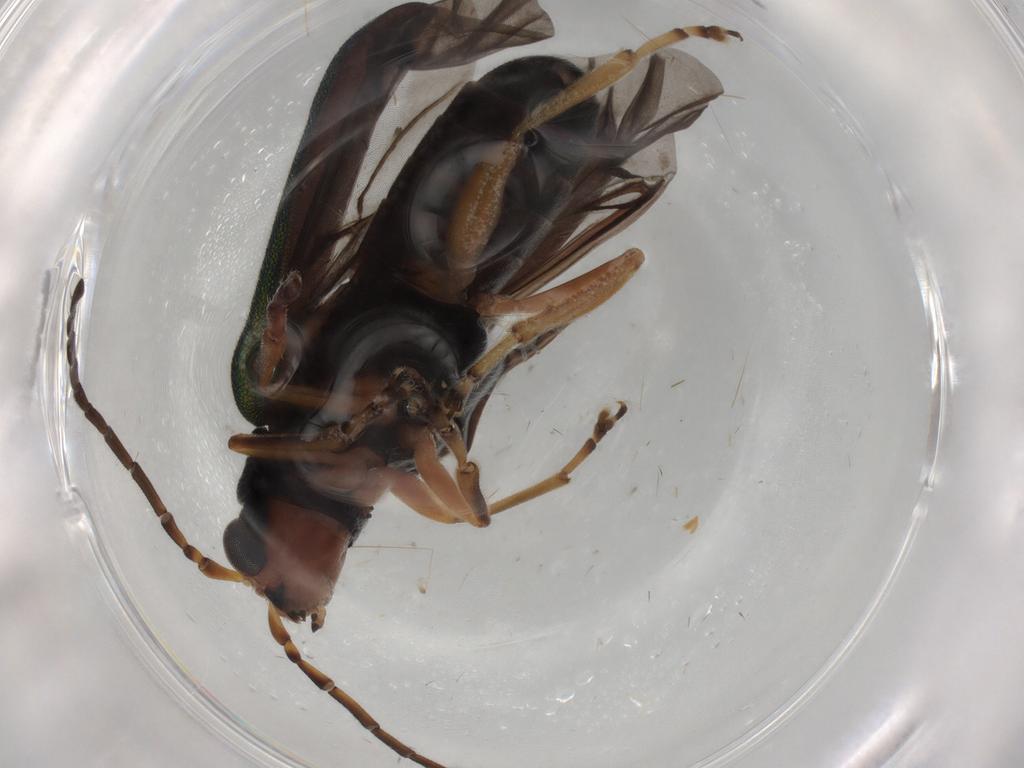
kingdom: Animalia
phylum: Arthropoda
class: Insecta
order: Coleoptera
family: Chrysomelidae
